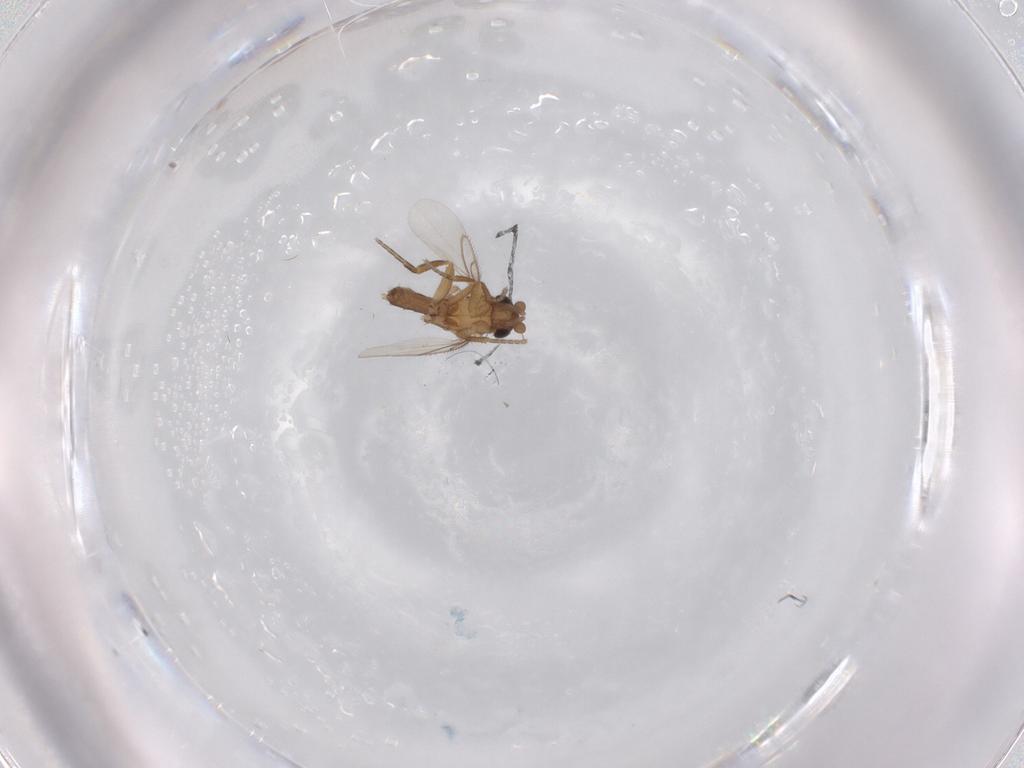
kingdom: Animalia
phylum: Arthropoda
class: Insecta
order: Diptera
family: Phoridae
